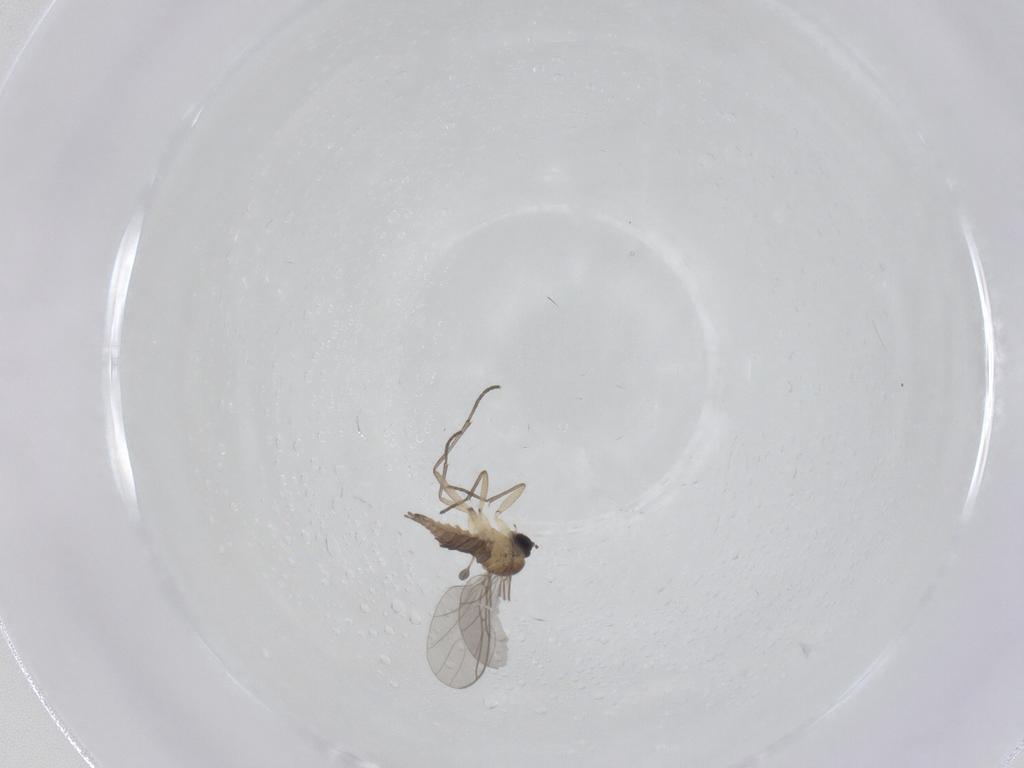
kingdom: Animalia
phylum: Arthropoda
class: Insecta
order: Diptera
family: Sciaridae
